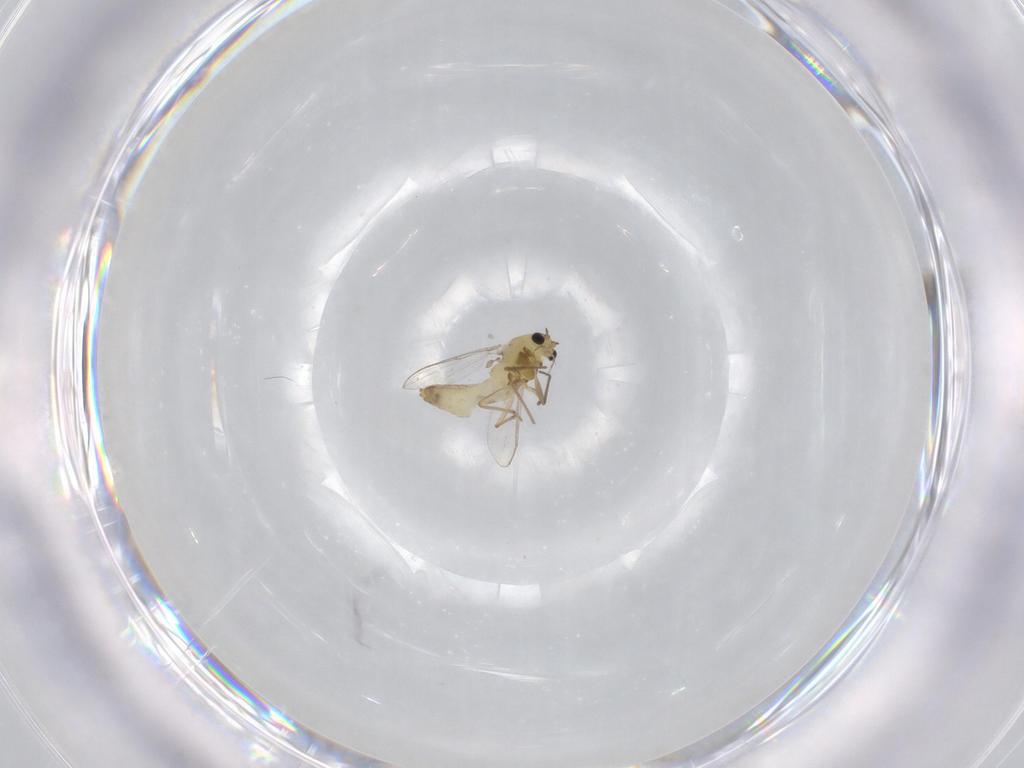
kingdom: Animalia
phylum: Arthropoda
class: Insecta
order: Diptera
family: Chironomidae
